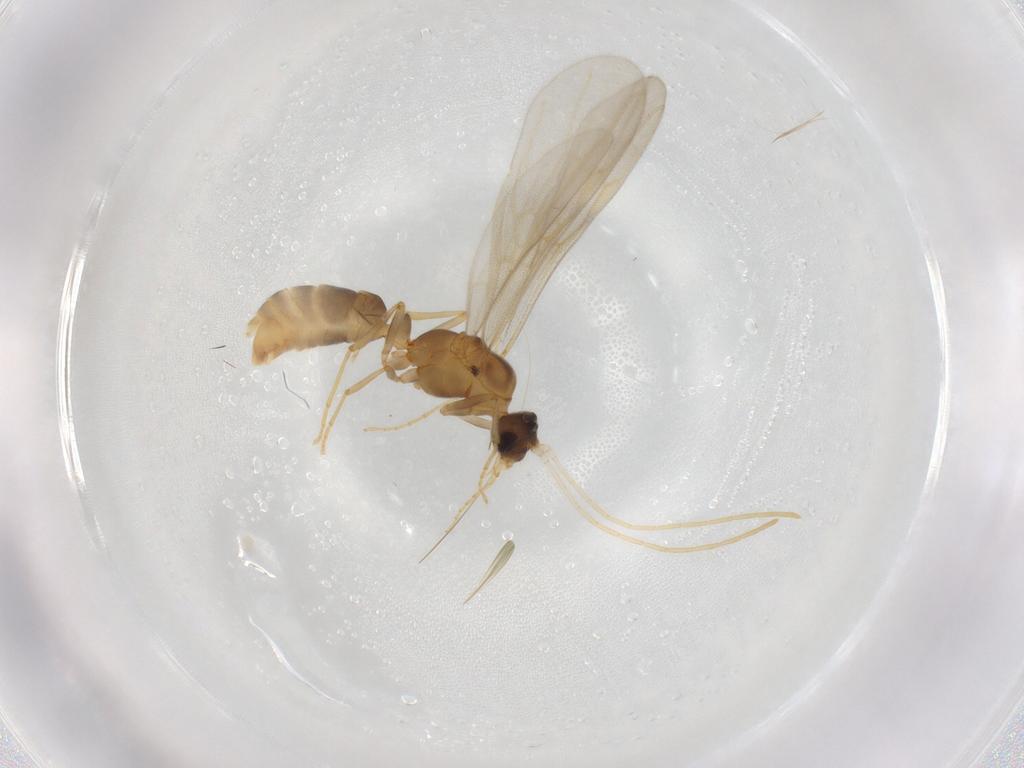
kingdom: Animalia
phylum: Arthropoda
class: Insecta
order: Hymenoptera
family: Formicidae
